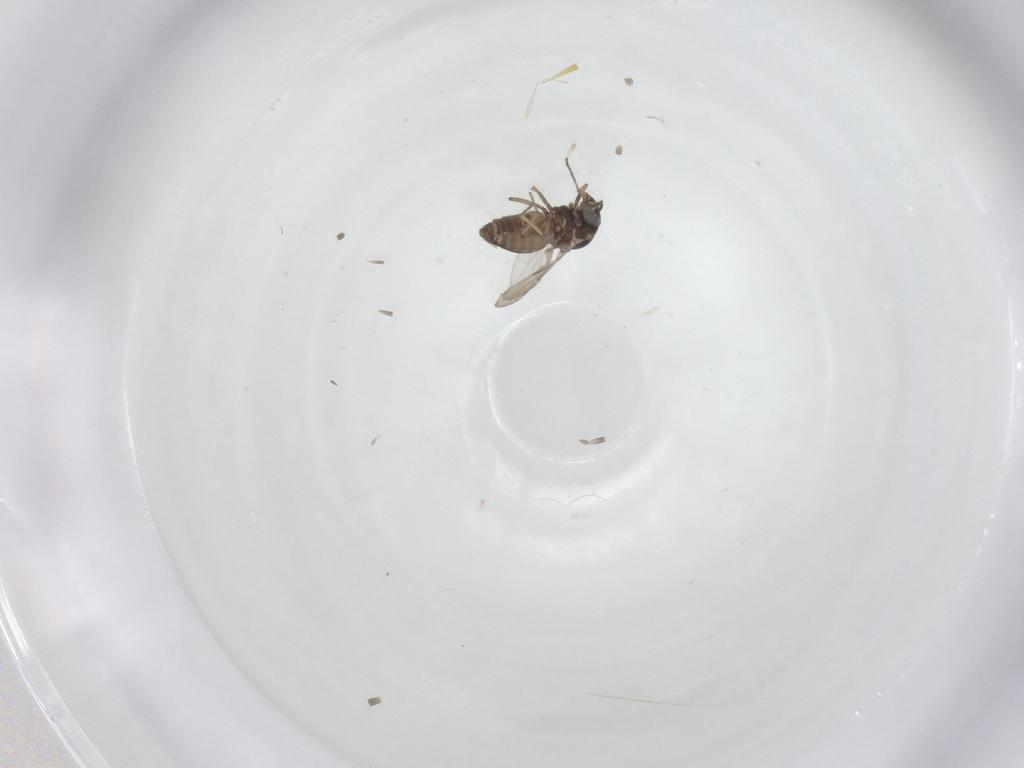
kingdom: Animalia
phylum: Arthropoda
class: Insecta
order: Diptera
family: Ceratopogonidae
